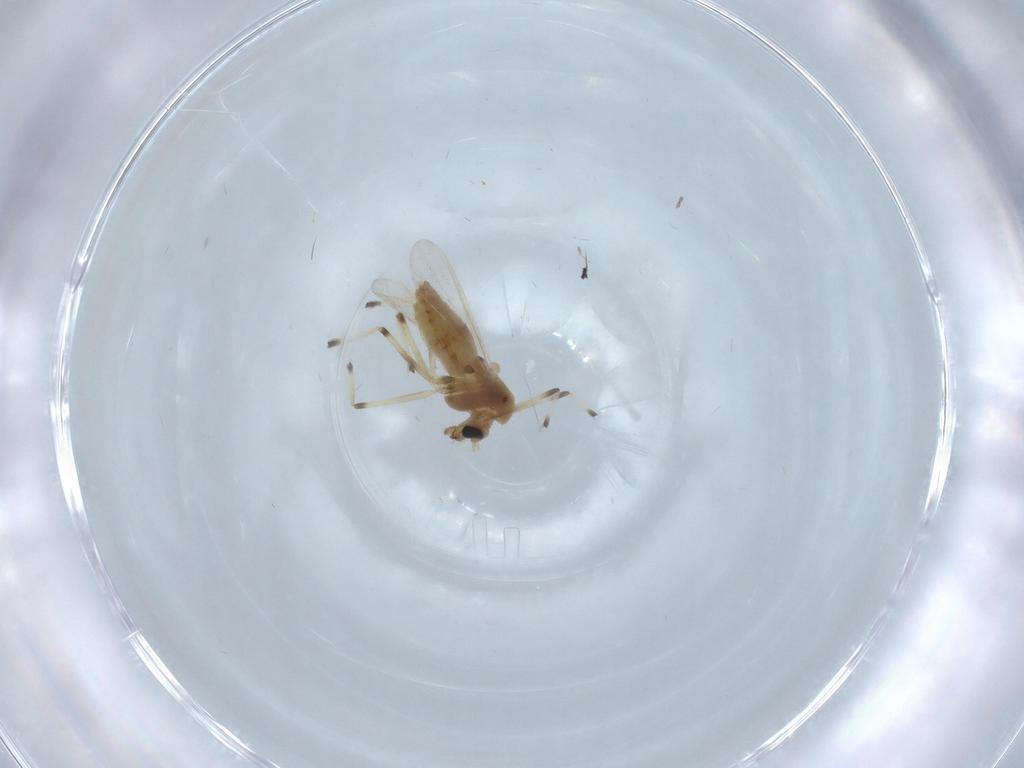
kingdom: Animalia
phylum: Arthropoda
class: Insecta
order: Diptera
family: Chironomidae
